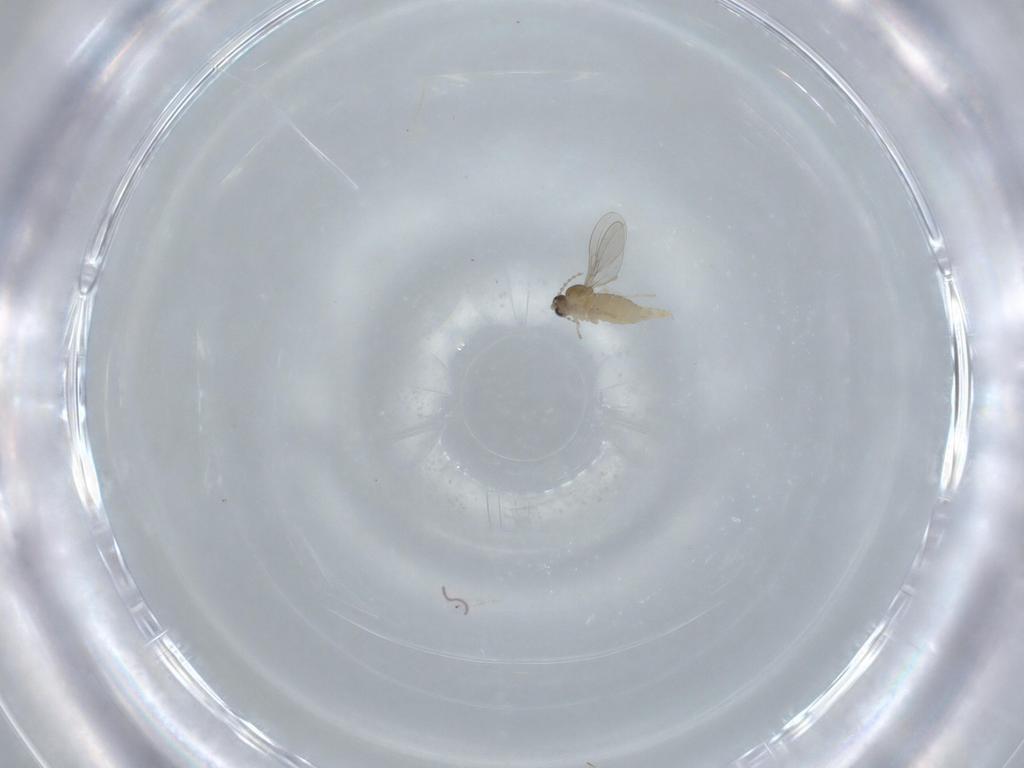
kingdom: Animalia
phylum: Arthropoda
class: Insecta
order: Diptera
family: Cecidomyiidae
